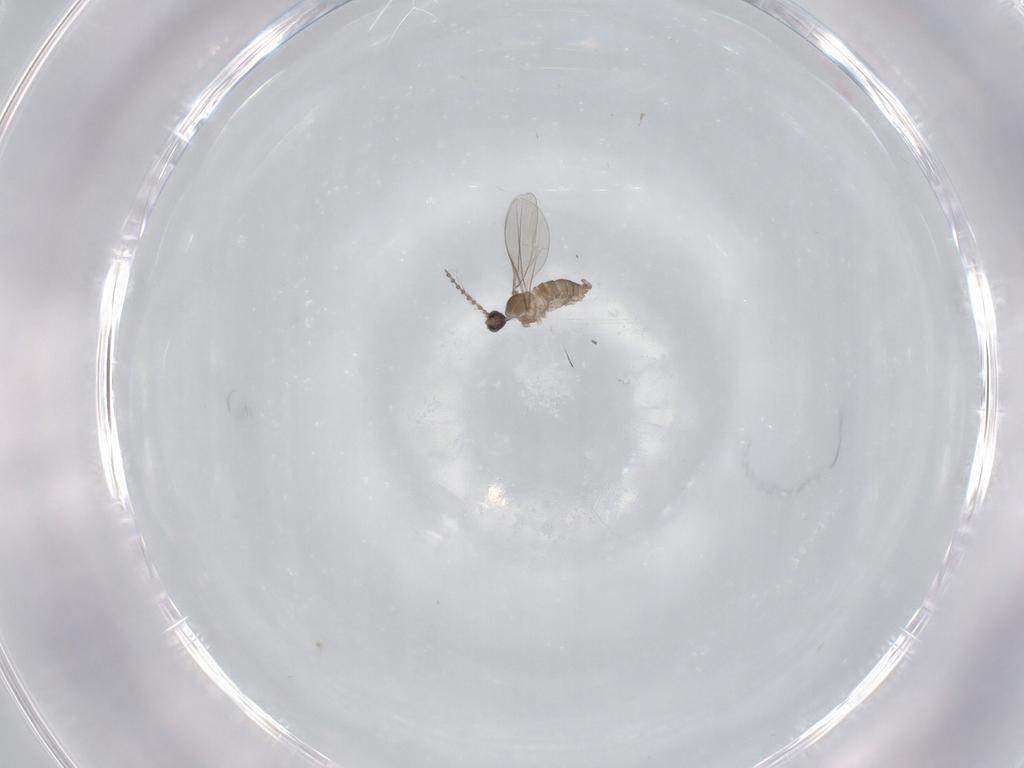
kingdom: Animalia
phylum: Arthropoda
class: Insecta
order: Diptera
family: Cecidomyiidae
